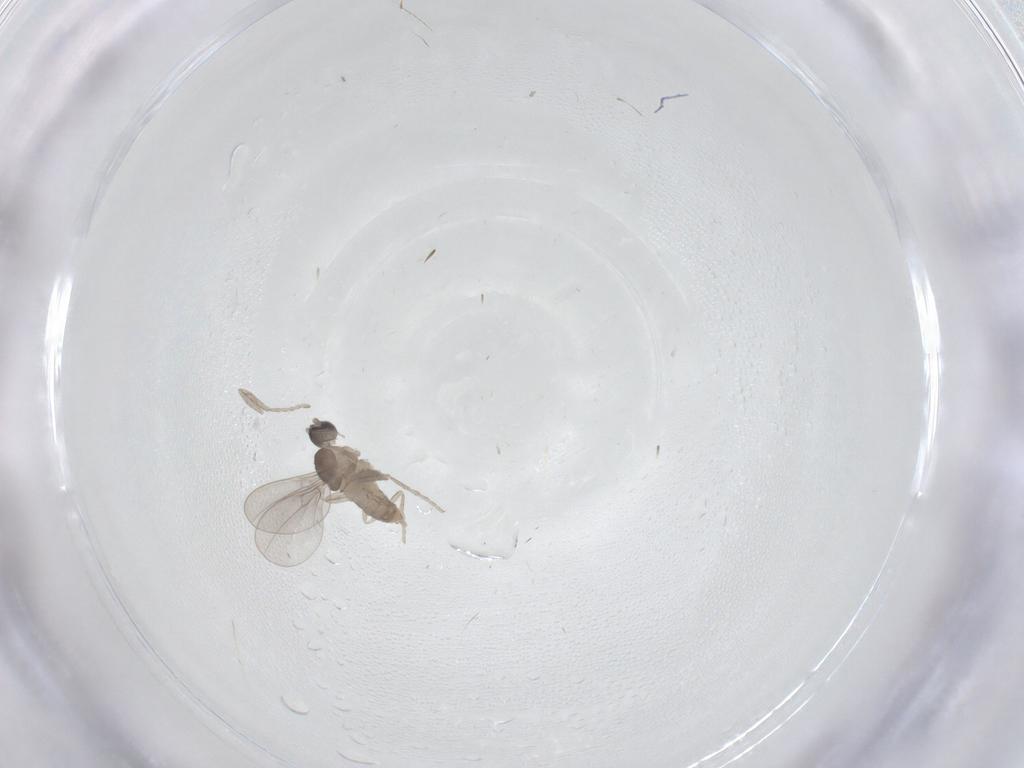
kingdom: Animalia
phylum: Arthropoda
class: Insecta
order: Diptera
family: Cecidomyiidae
